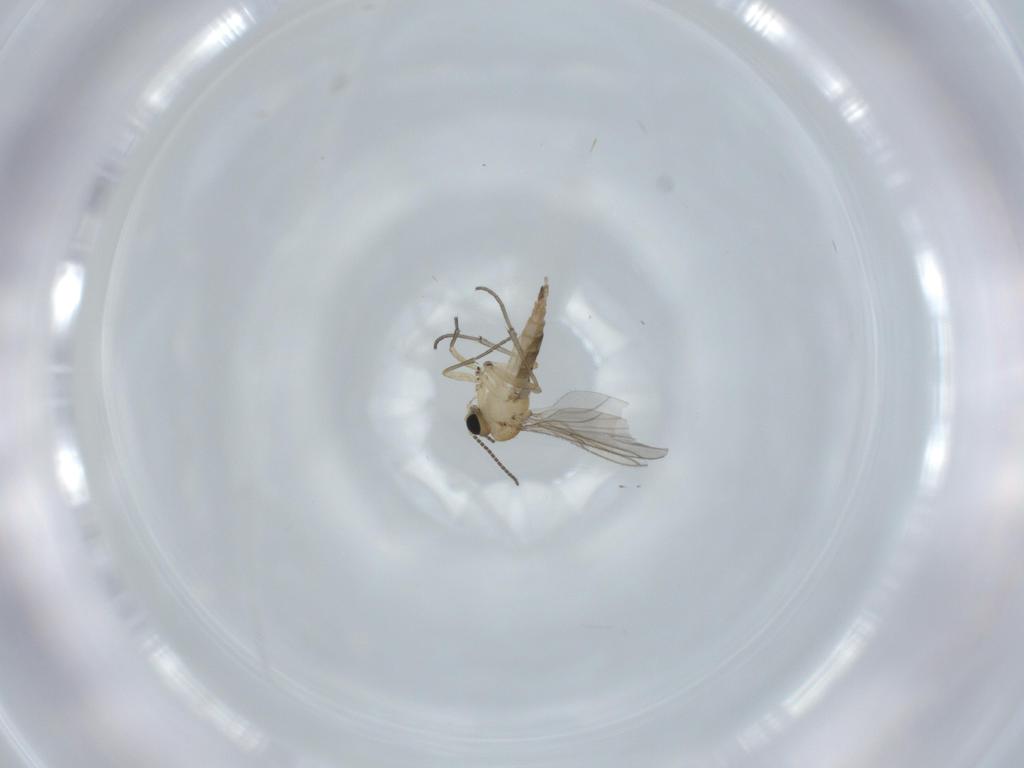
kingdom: Animalia
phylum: Arthropoda
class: Insecta
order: Diptera
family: Sciaridae
